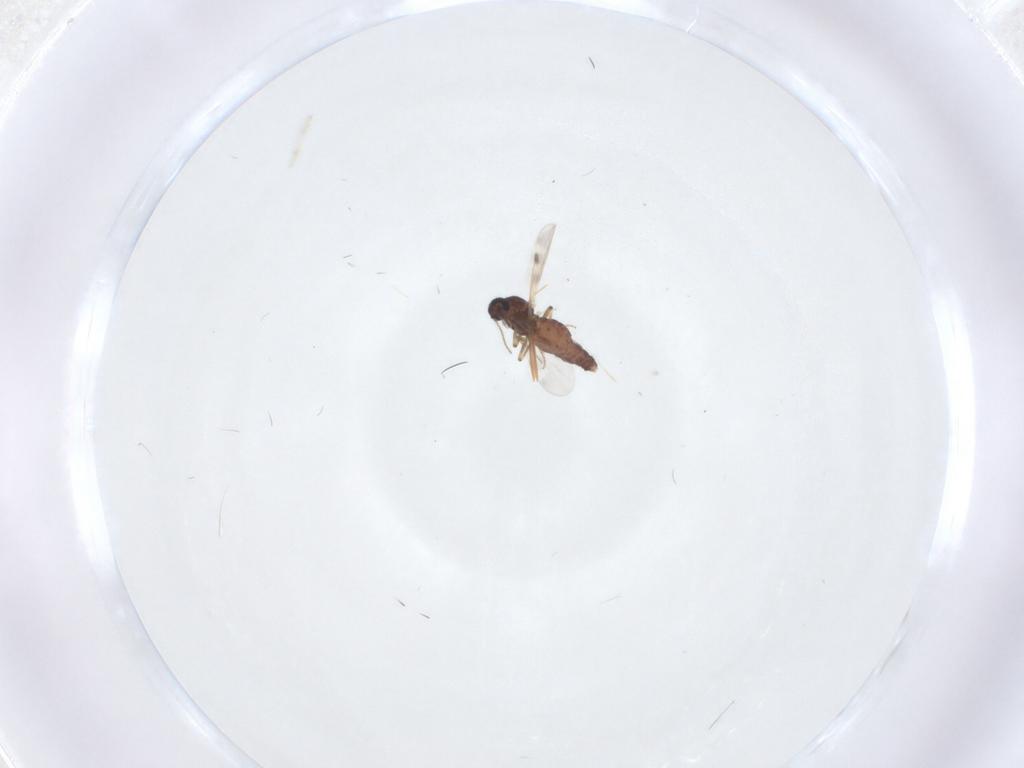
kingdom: Animalia
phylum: Arthropoda
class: Insecta
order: Diptera
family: Ceratopogonidae
